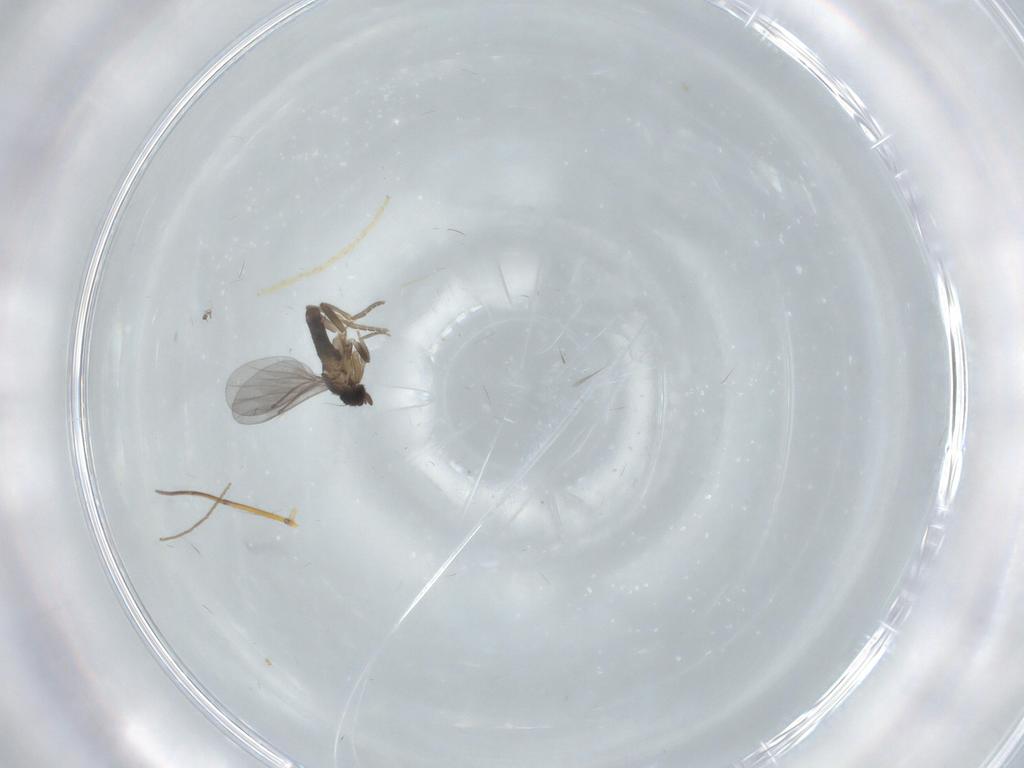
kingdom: Animalia
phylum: Arthropoda
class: Insecta
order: Diptera
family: Chironomidae
